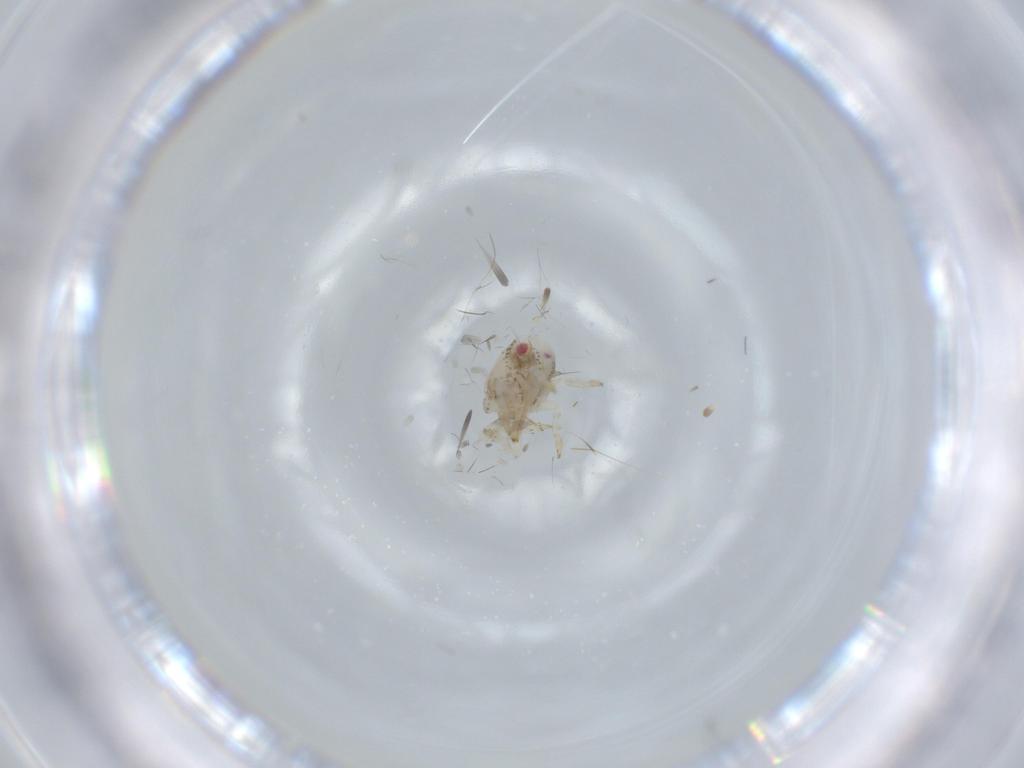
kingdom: Animalia
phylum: Arthropoda
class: Insecta
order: Hemiptera
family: Acanaloniidae
